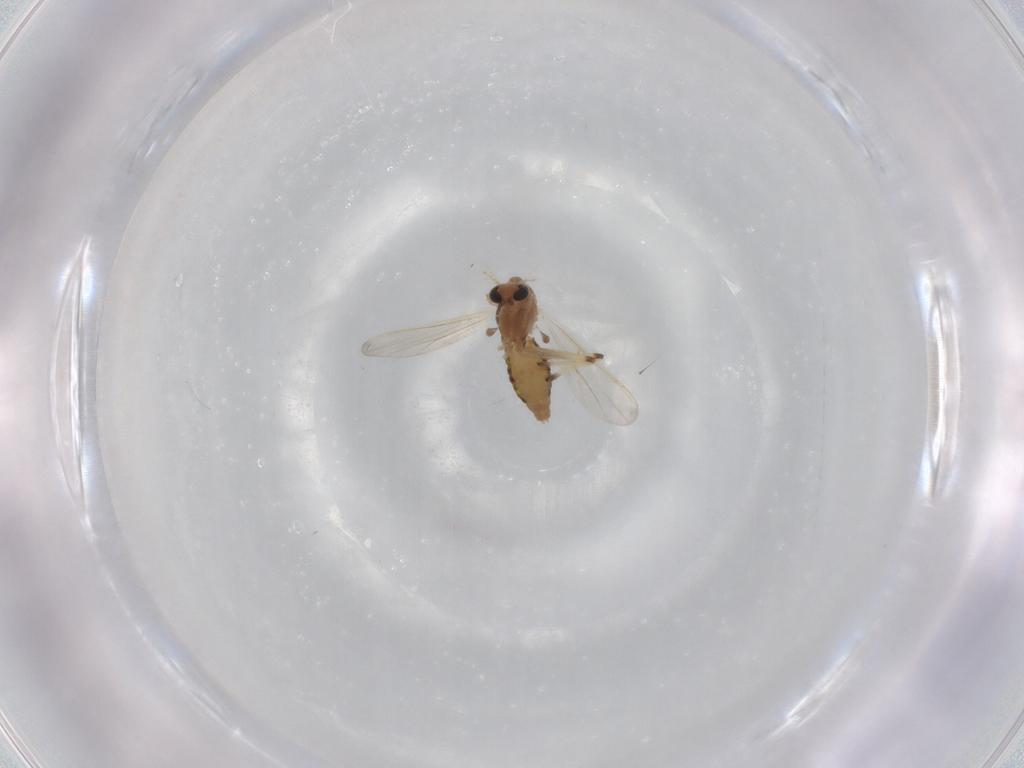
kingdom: Animalia
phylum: Arthropoda
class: Insecta
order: Diptera
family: Chironomidae
